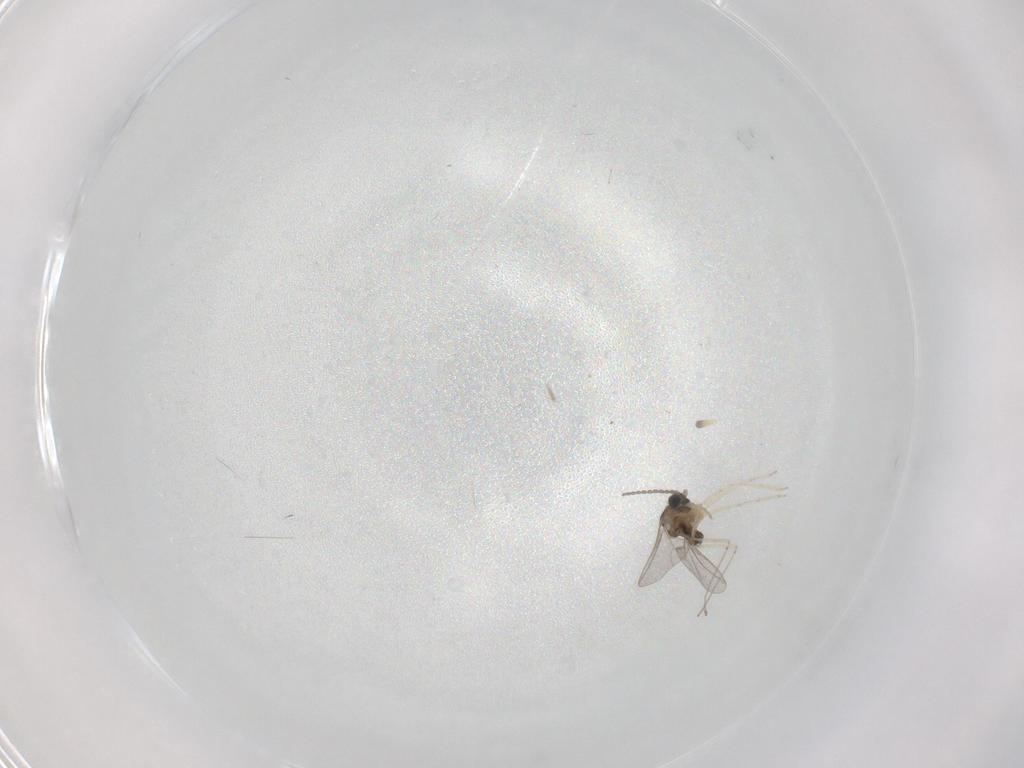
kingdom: Animalia
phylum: Arthropoda
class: Insecta
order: Diptera
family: Cecidomyiidae
